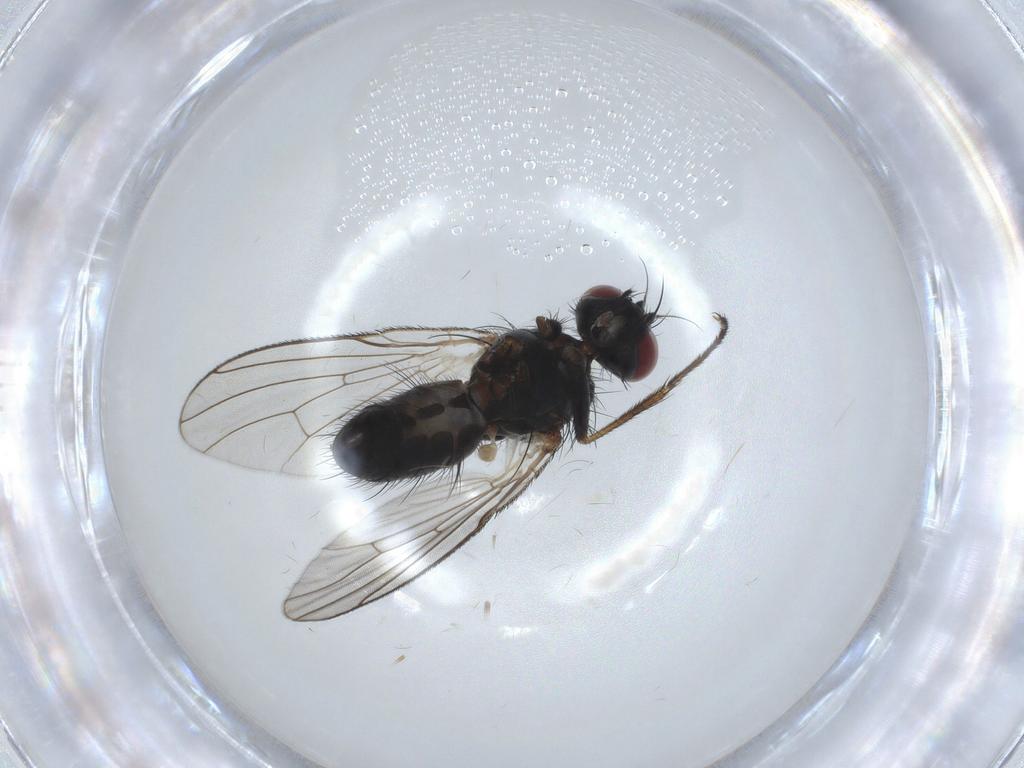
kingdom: Animalia
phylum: Arthropoda
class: Insecta
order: Diptera
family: Muscidae
